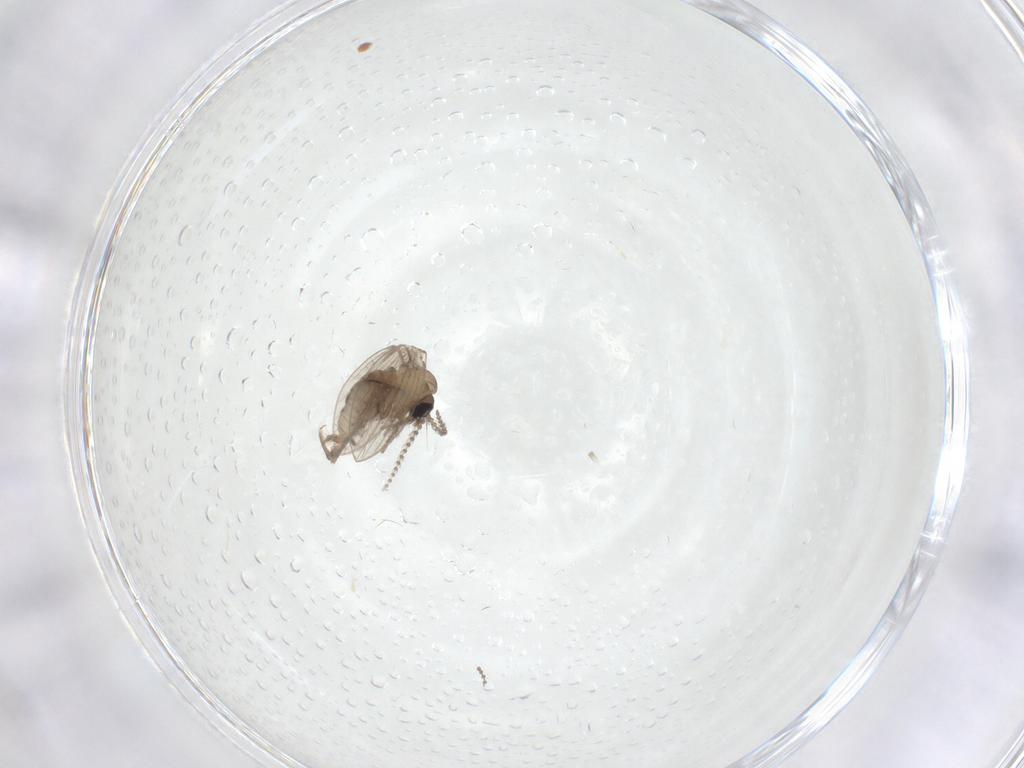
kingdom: Animalia
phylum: Arthropoda
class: Insecta
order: Diptera
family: Psychodidae
